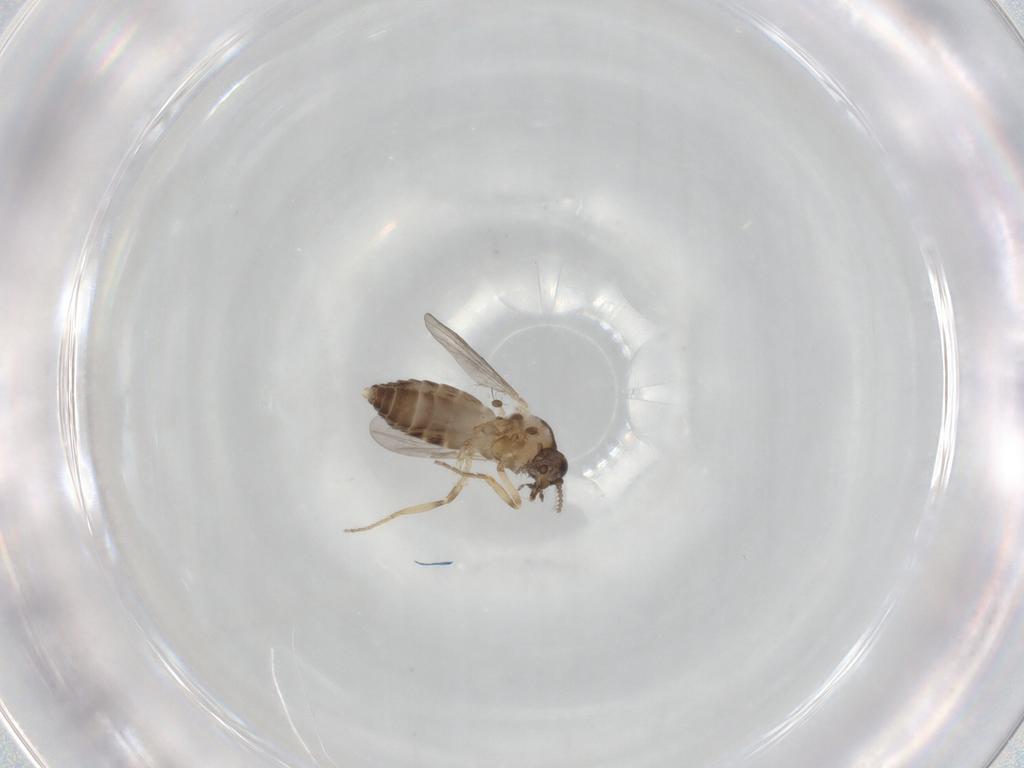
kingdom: Animalia
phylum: Arthropoda
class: Insecta
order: Diptera
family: Ceratopogonidae
